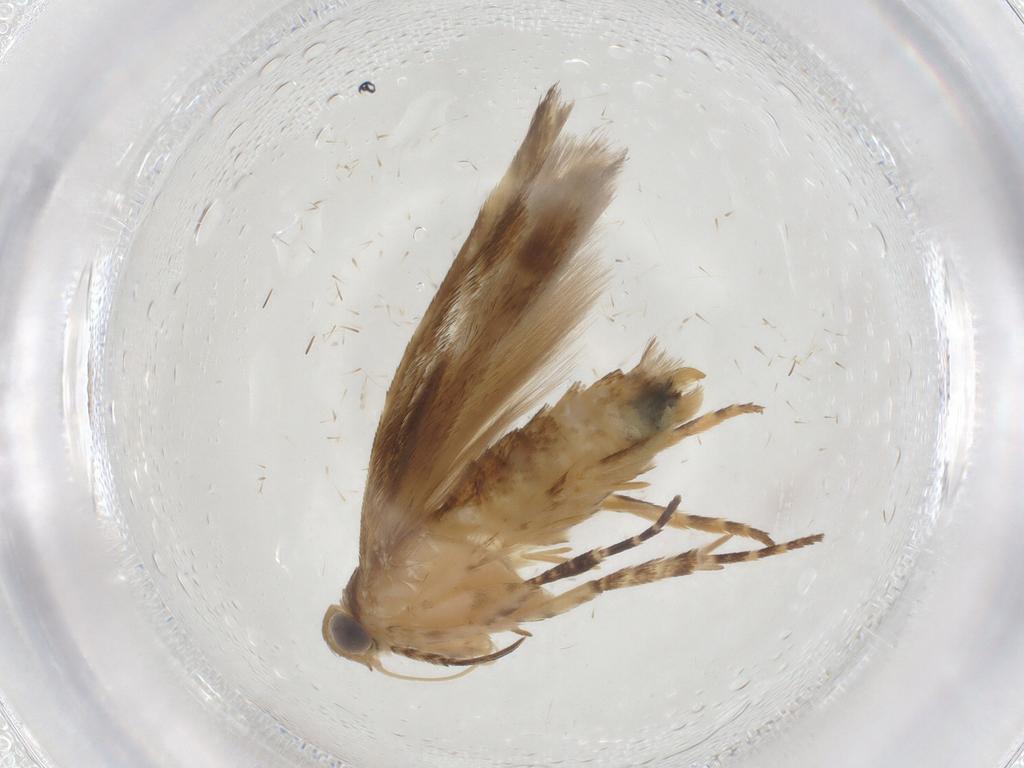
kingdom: Animalia
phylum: Arthropoda
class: Insecta
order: Lepidoptera
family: Gelechiidae
